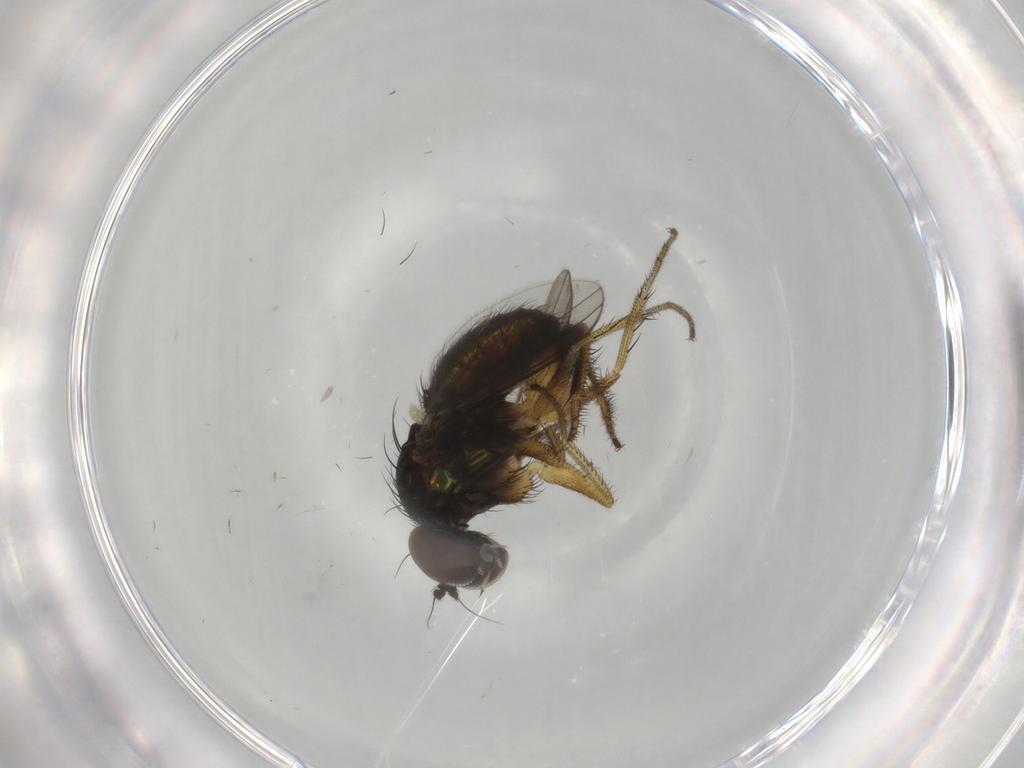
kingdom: Animalia
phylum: Arthropoda
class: Insecta
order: Diptera
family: Dolichopodidae
